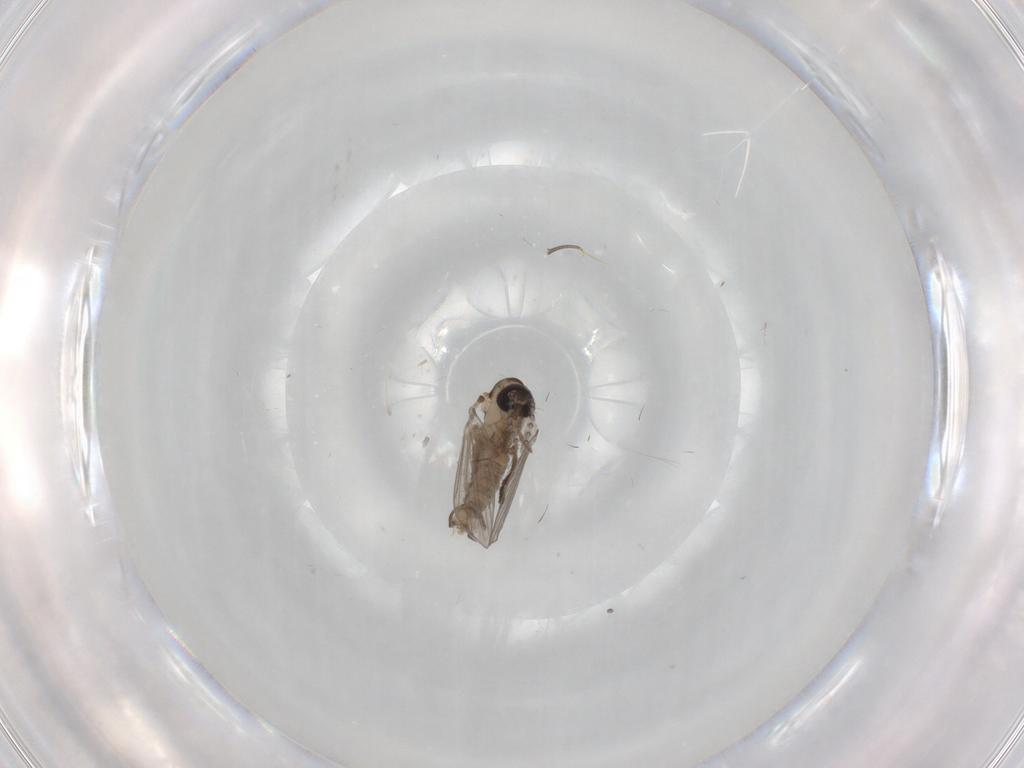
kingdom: Animalia
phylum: Arthropoda
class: Insecta
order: Diptera
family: Psychodidae
